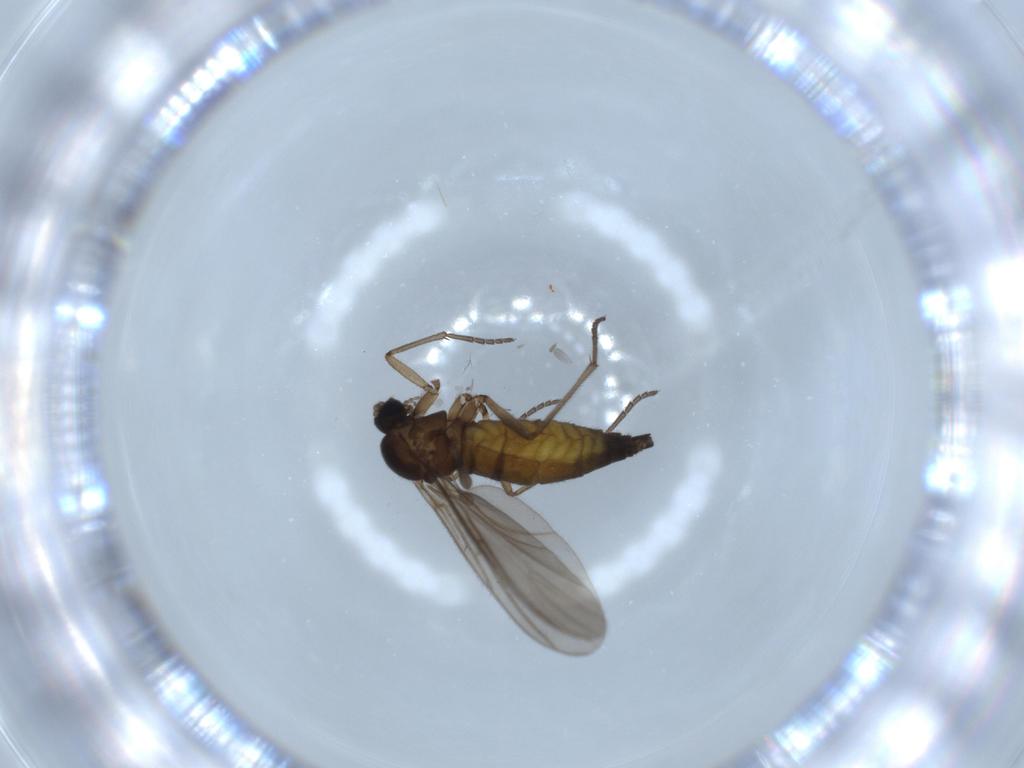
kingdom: Animalia
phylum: Arthropoda
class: Insecta
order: Diptera
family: Sciaridae
